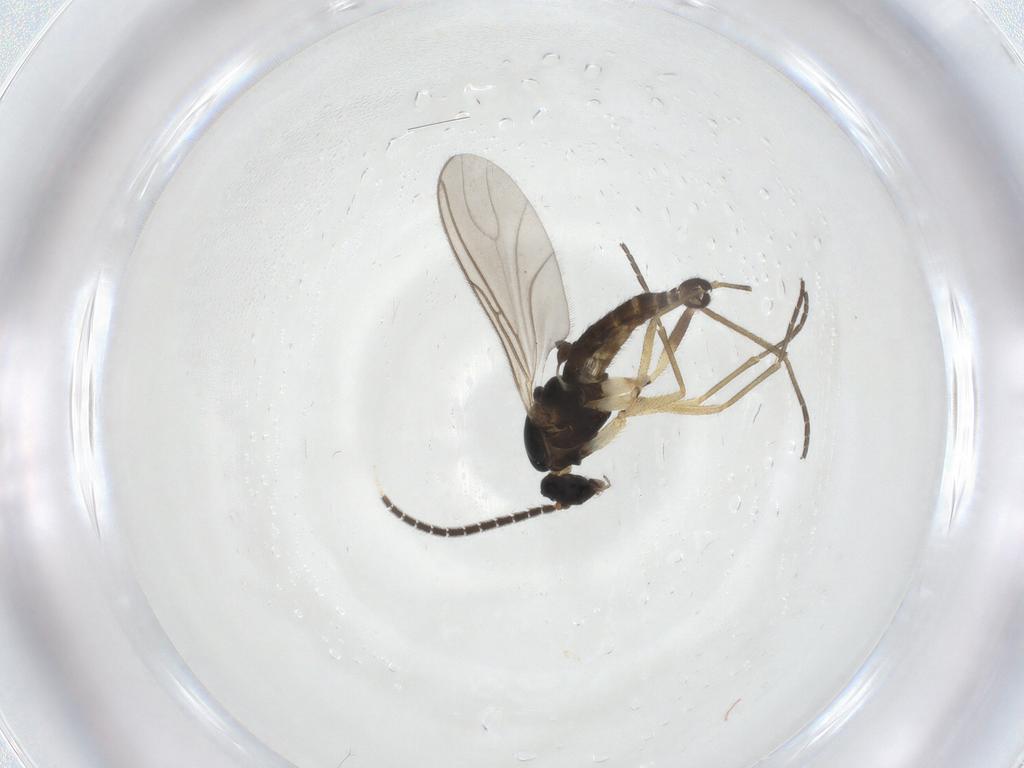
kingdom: Animalia
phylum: Arthropoda
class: Insecta
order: Diptera
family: Sciaridae
